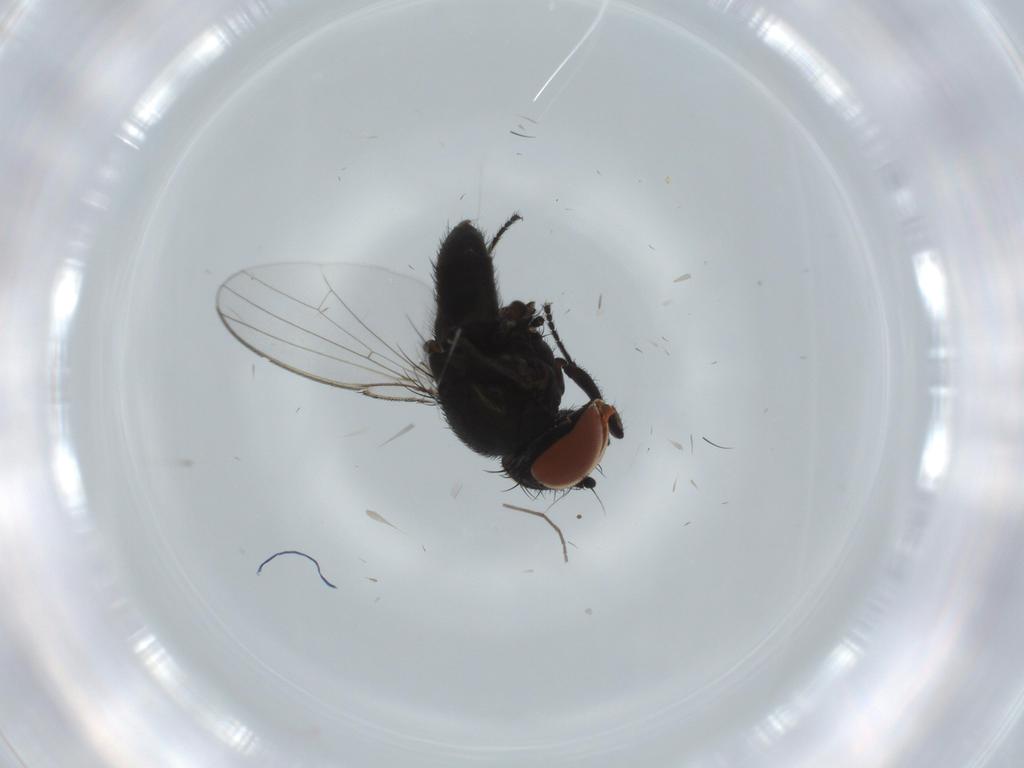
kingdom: Animalia
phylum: Arthropoda
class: Insecta
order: Diptera
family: Milichiidae
